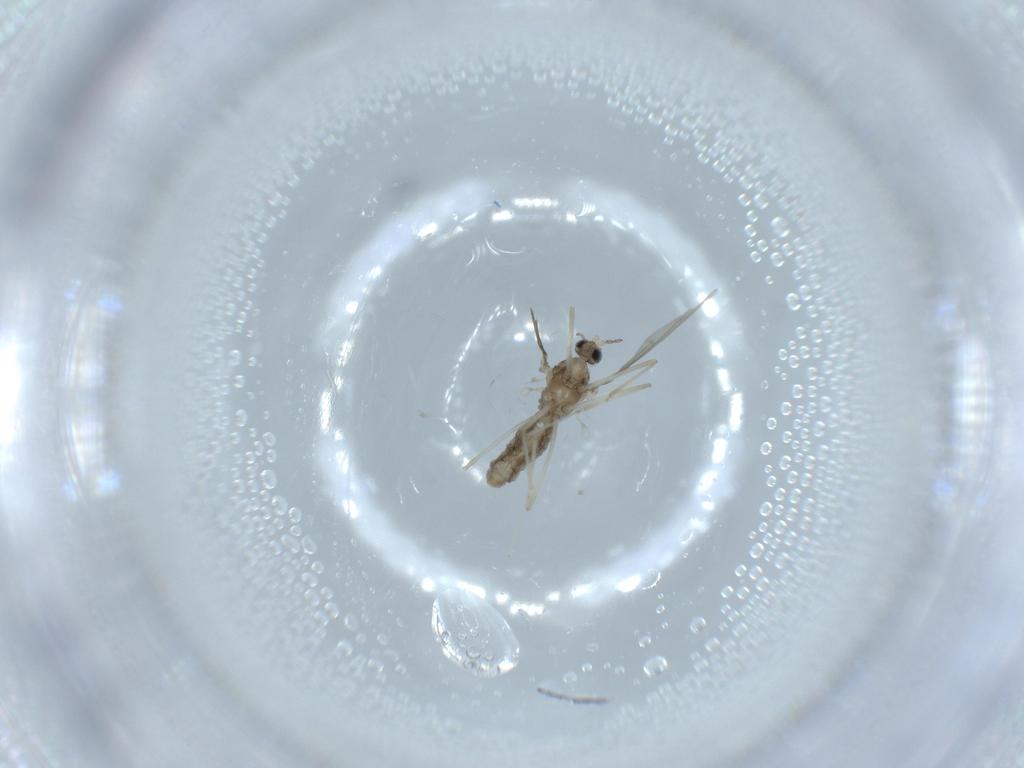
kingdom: Animalia
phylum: Arthropoda
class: Insecta
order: Diptera
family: Cecidomyiidae
